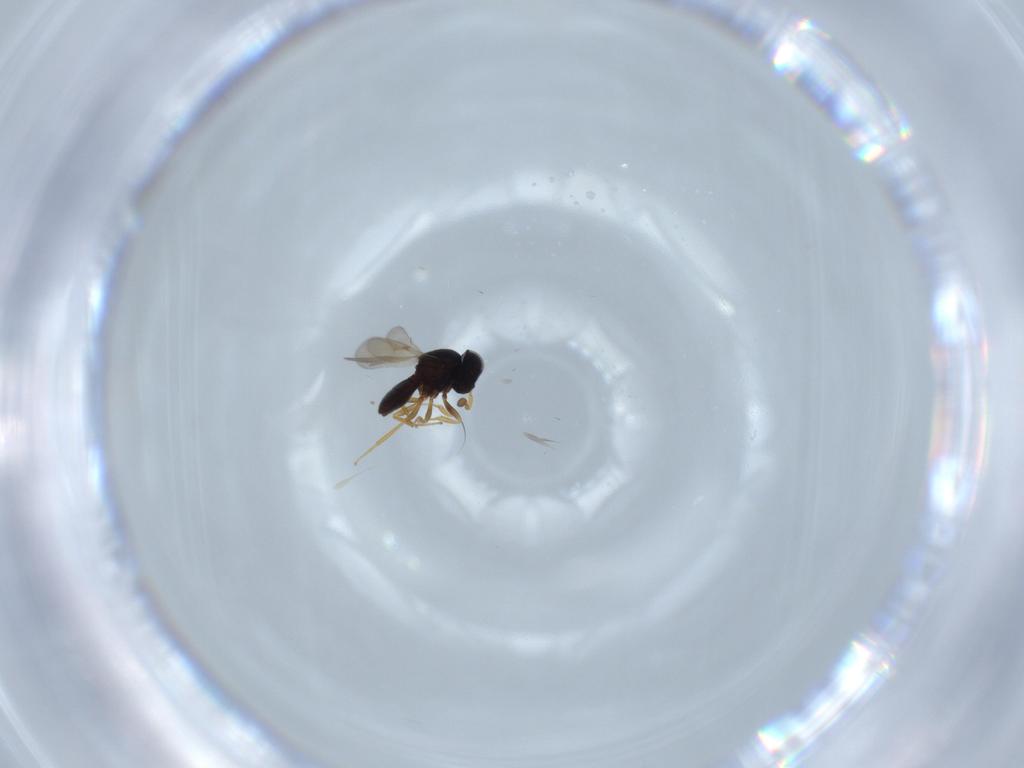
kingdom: Animalia
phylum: Arthropoda
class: Insecta
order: Hymenoptera
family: Scelionidae
